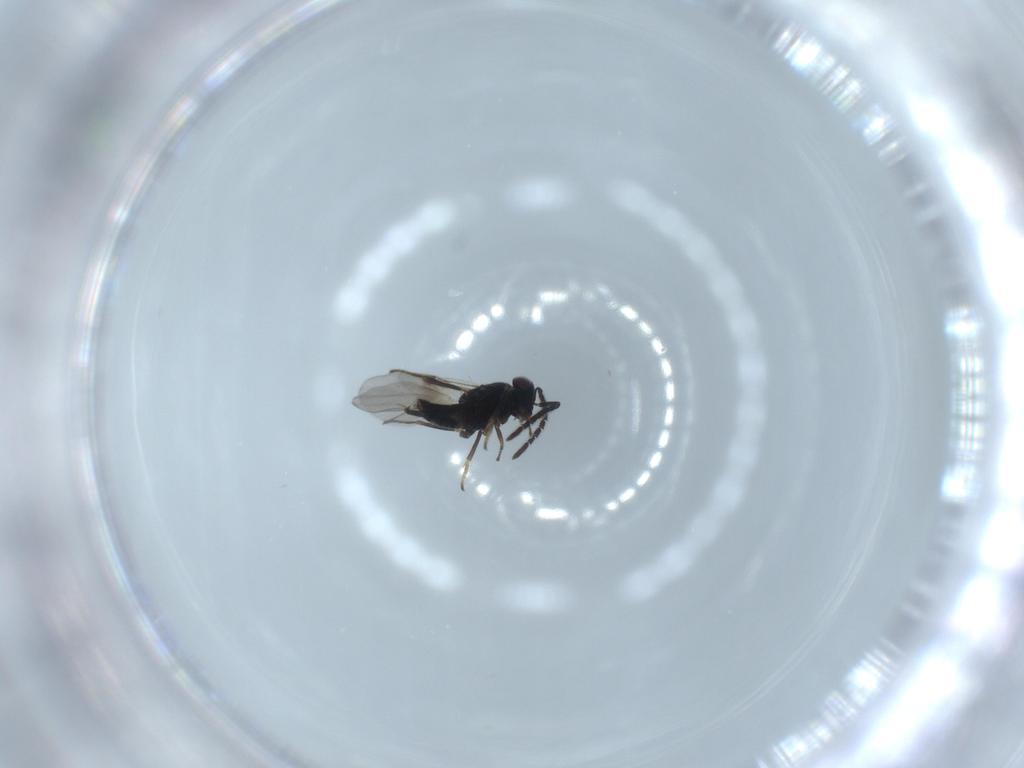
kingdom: Animalia
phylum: Arthropoda
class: Insecta
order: Hymenoptera
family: Encyrtidae
